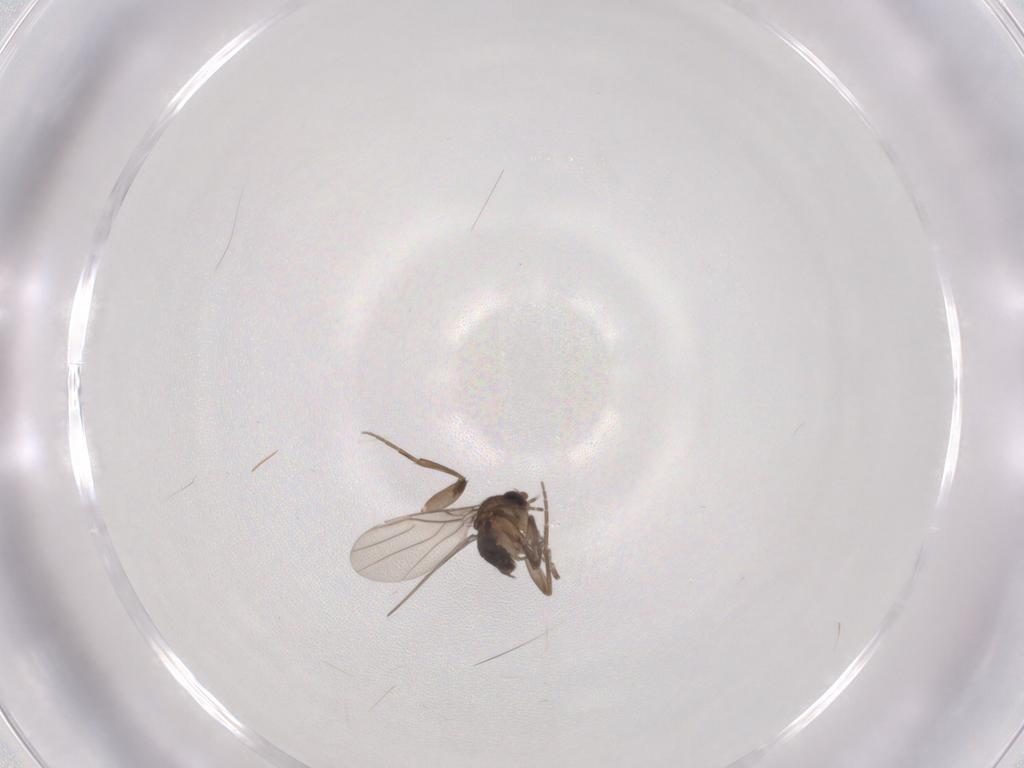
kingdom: Animalia
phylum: Arthropoda
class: Insecta
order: Diptera
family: Phoridae
